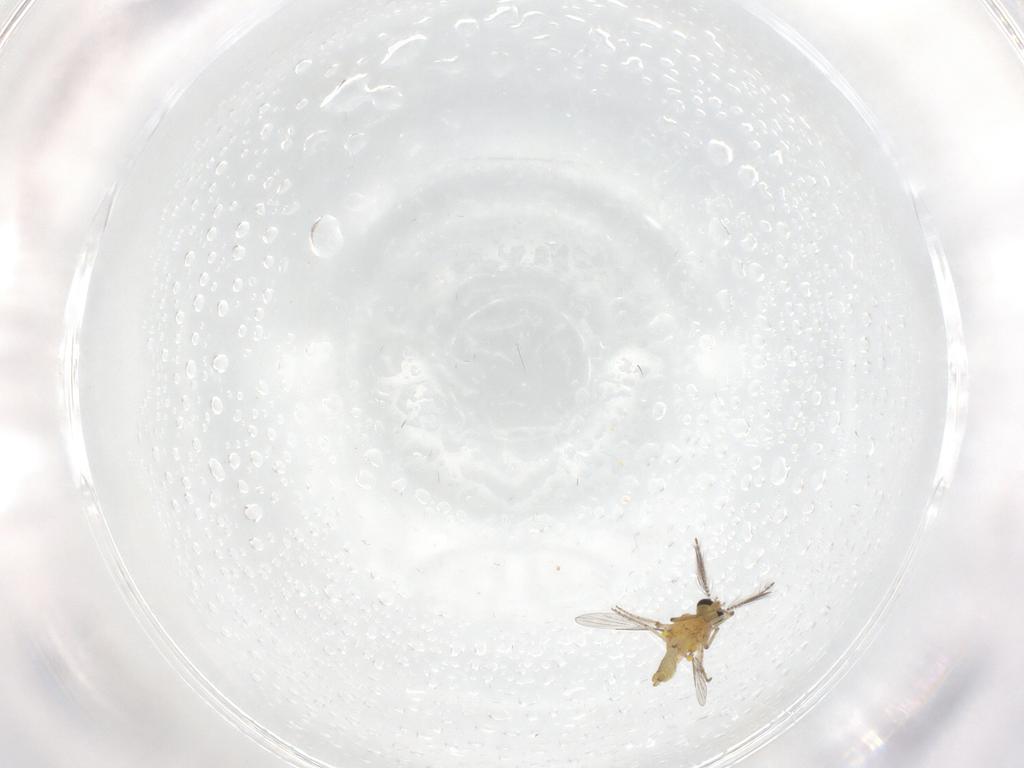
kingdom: Animalia
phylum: Arthropoda
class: Insecta
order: Diptera
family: Ceratopogonidae
